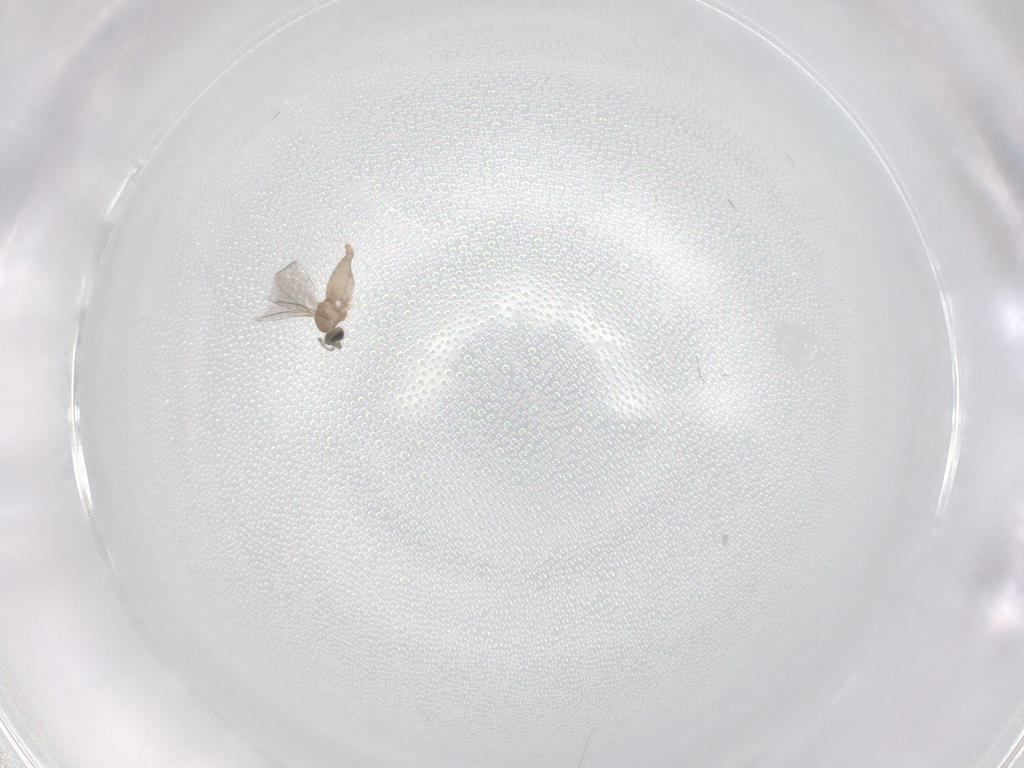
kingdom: Animalia
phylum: Arthropoda
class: Insecta
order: Diptera
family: Cecidomyiidae
